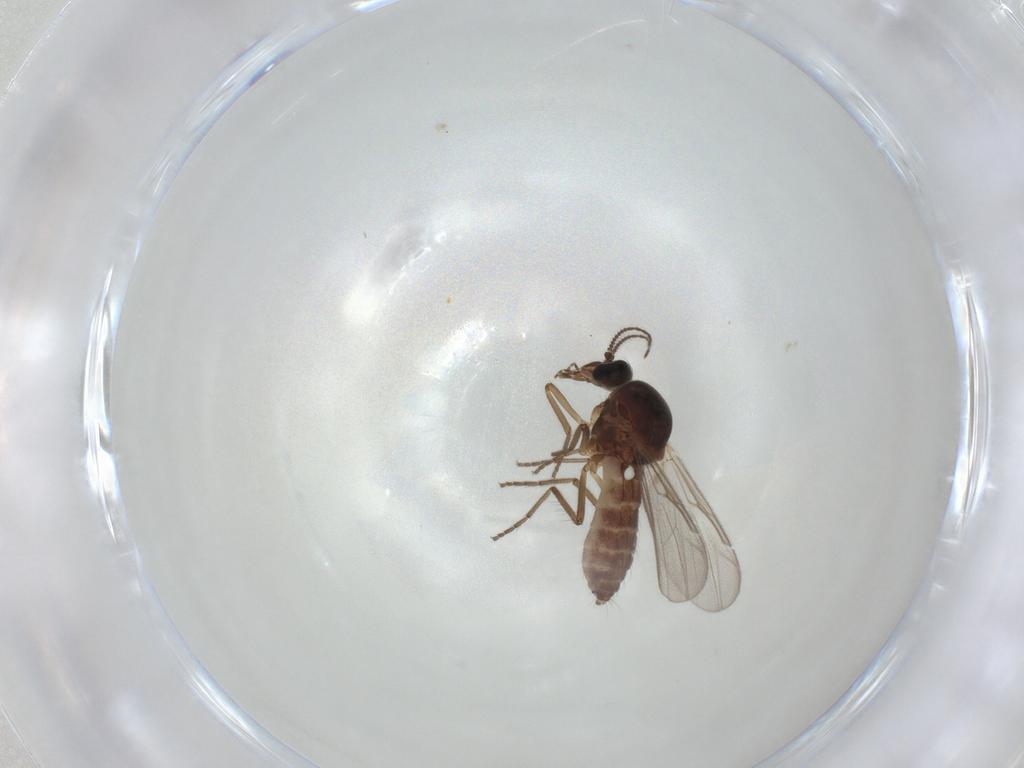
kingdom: Animalia
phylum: Arthropoda
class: Insecta
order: Diptera
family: Ceratopogonidae
